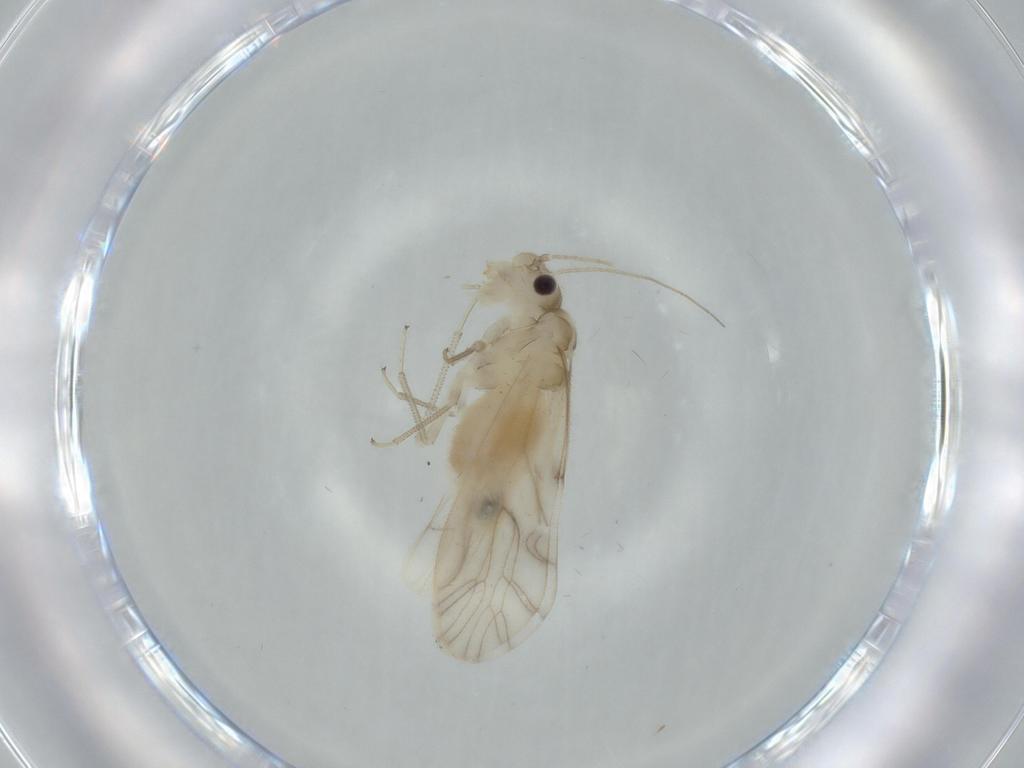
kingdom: Animalia
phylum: Arthropoda
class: Insecta
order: Psocodea
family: Caeciliusidae
